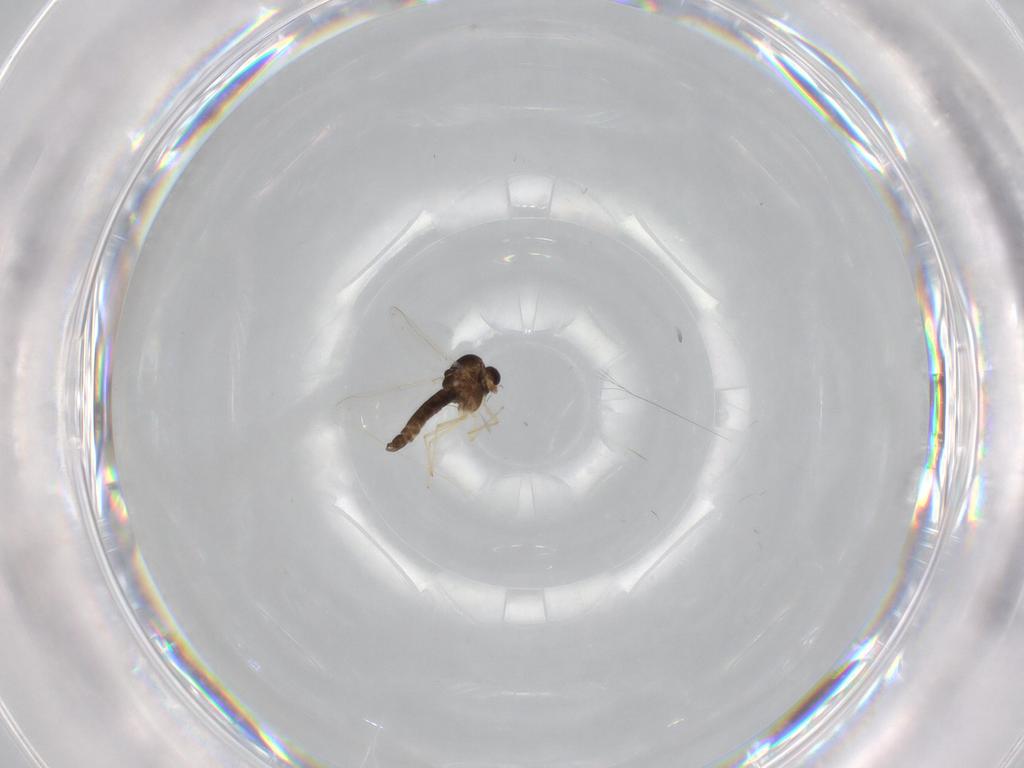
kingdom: Animalia
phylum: Arthropoda
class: Insecta
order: Diptera
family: Chironomidae
